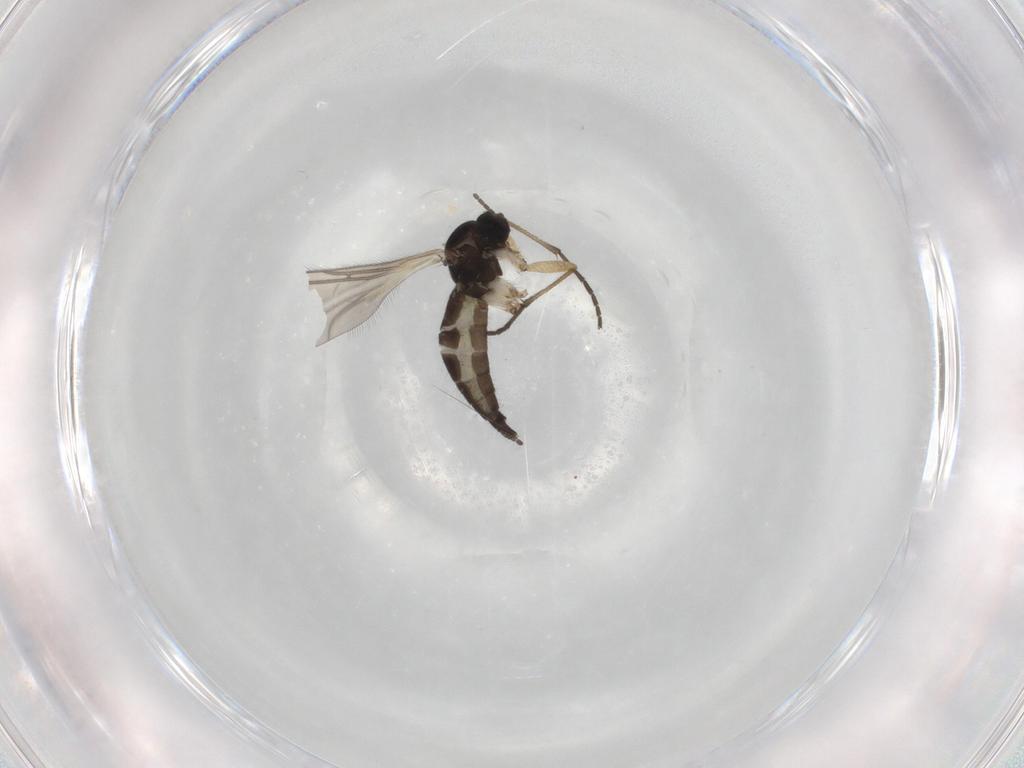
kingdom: Animalia
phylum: Arthropoda
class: Insecta
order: Diptera
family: Sciaridae
